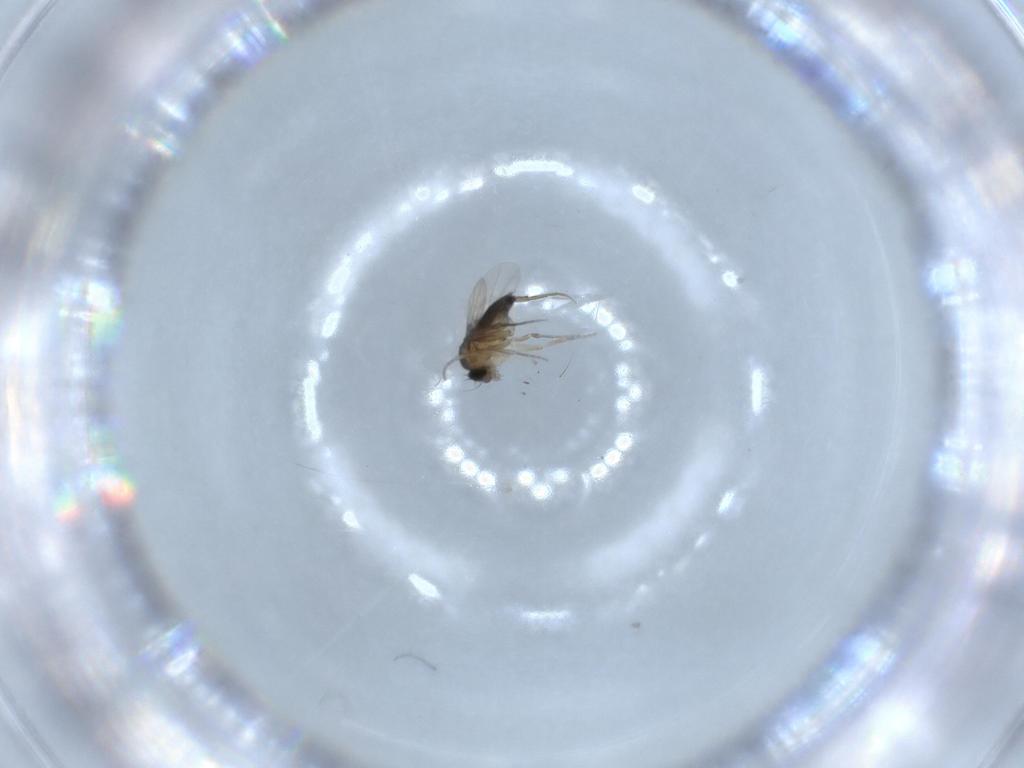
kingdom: Animalia
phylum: Arthropoda
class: Insecta
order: Diptera
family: Phoridae
